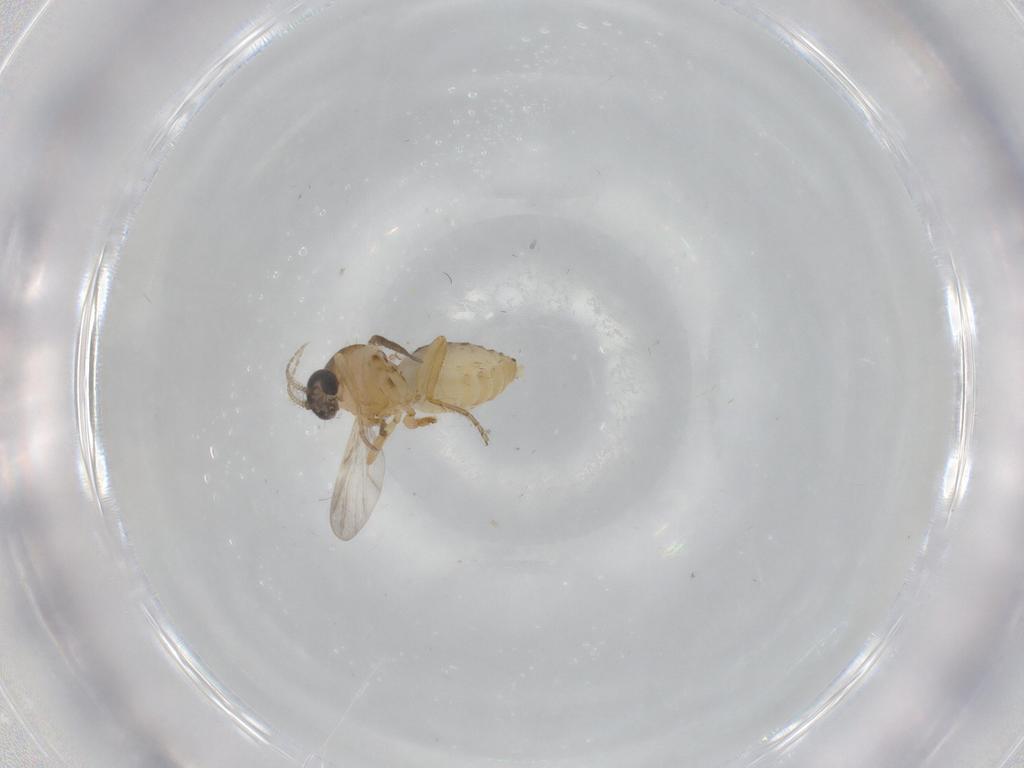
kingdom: Animalia
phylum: Arthropoda
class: Insecta
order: Diptera
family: Ceratopogonidae
